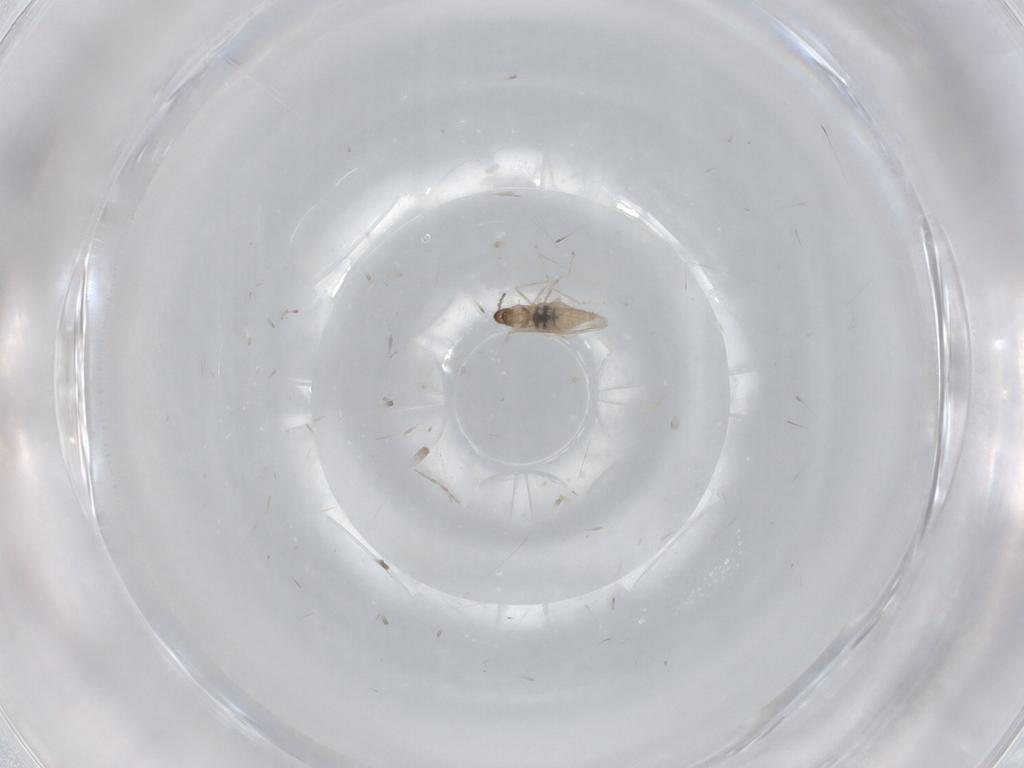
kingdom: Animalia
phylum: Arthropoda
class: Insecta
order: Diptera
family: Cecidomyiidae
